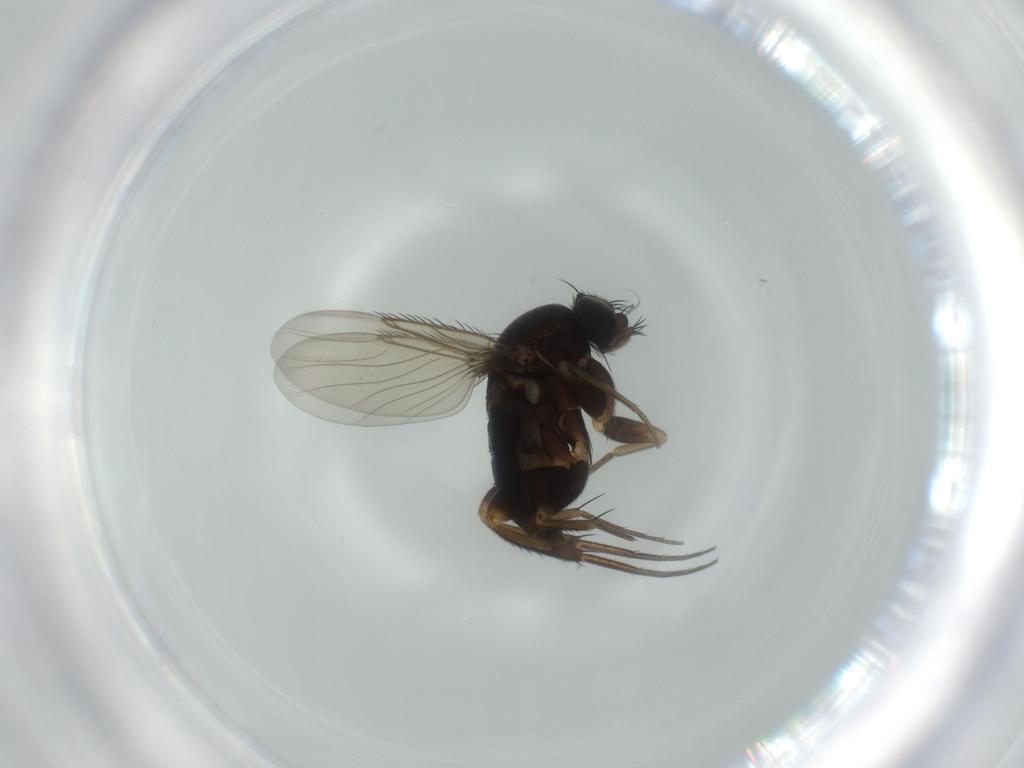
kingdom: Animalia
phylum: Arthropoda
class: Insecta
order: Diptera
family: Phoridae
